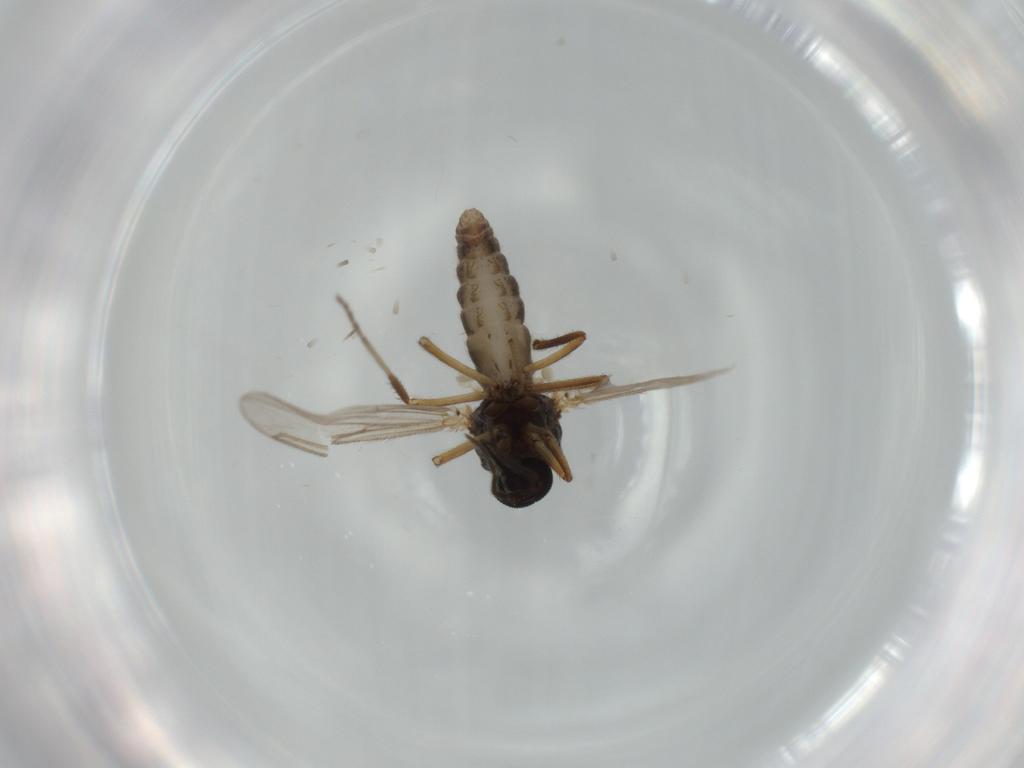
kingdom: Animalia
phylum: Arthropoda
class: Insecta
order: Diptera
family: Ceratopogonidae
